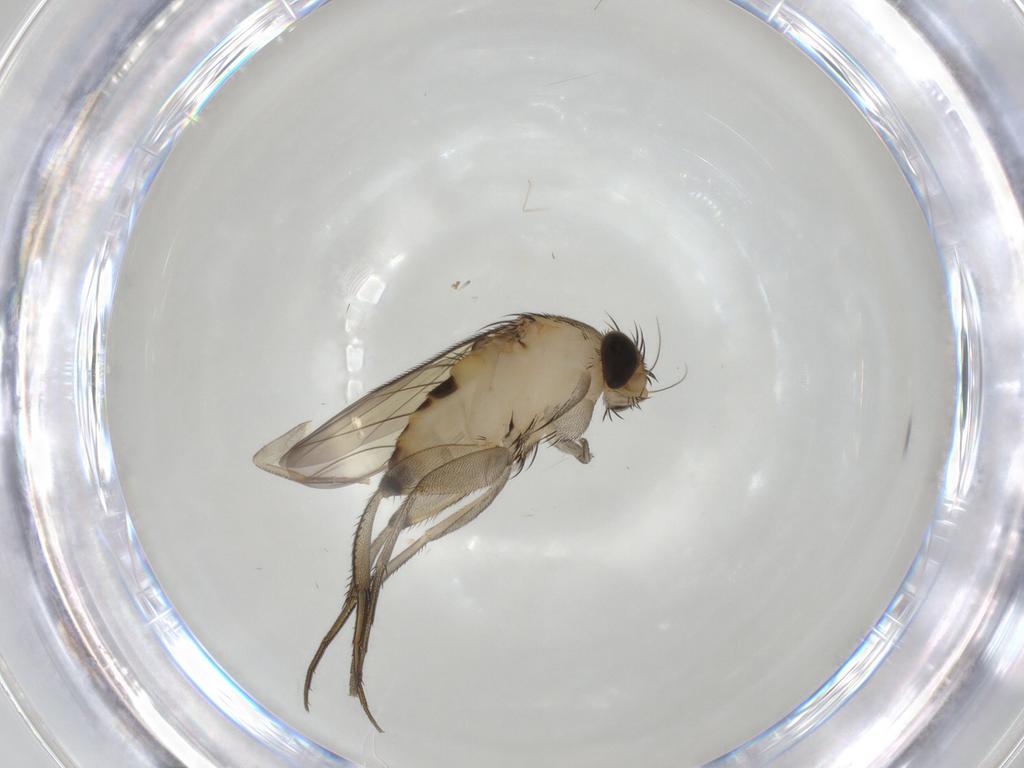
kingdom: Animalia
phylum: Arthropoda
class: Insecta
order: Diptera
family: Phoridae
